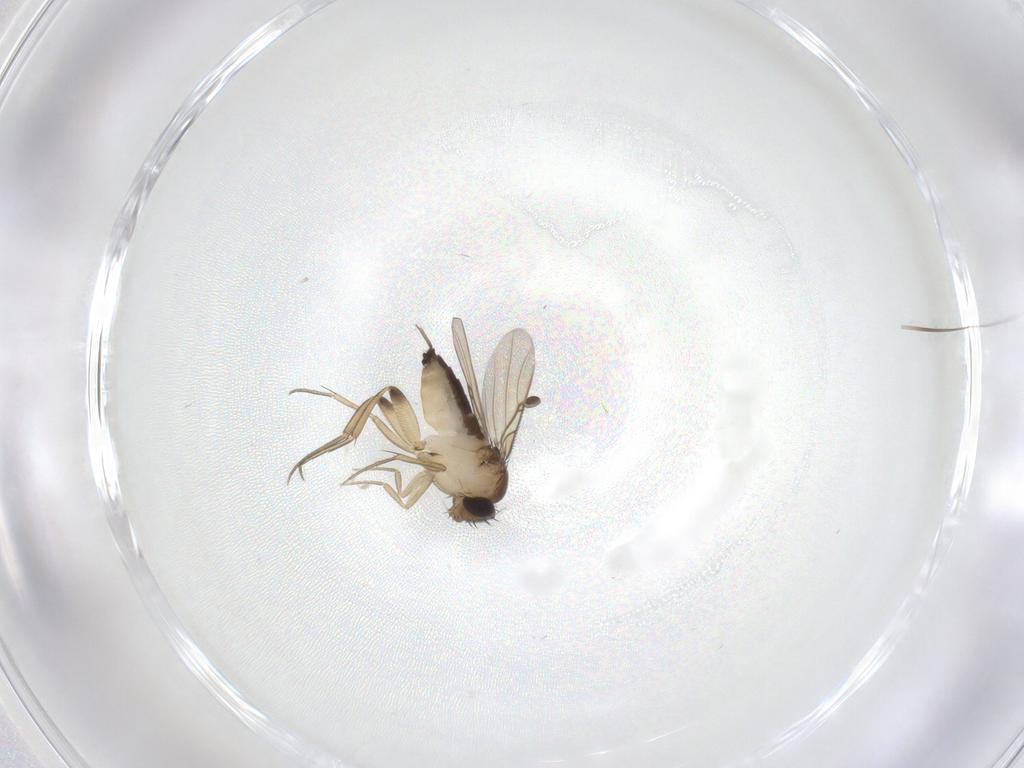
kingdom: Animalia
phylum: Arthropoda
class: Insecta
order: Diptera
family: Phoridae
